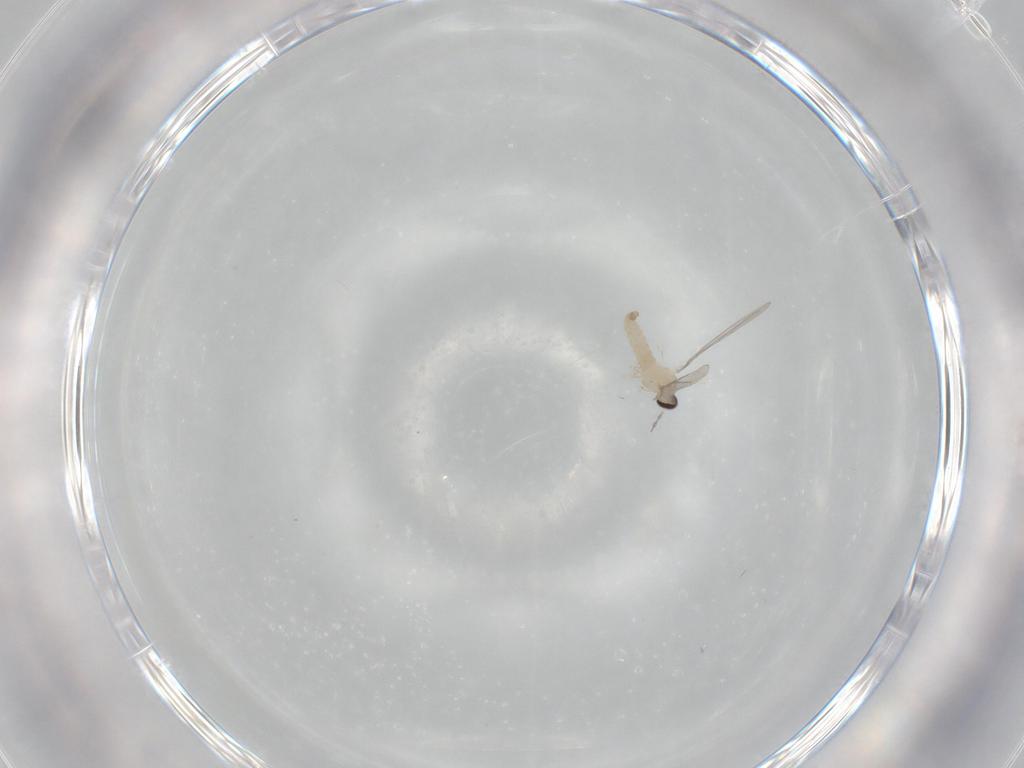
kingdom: Animalia
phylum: Arthropoda
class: Insecta
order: Diptera
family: Cecidomyiidae
